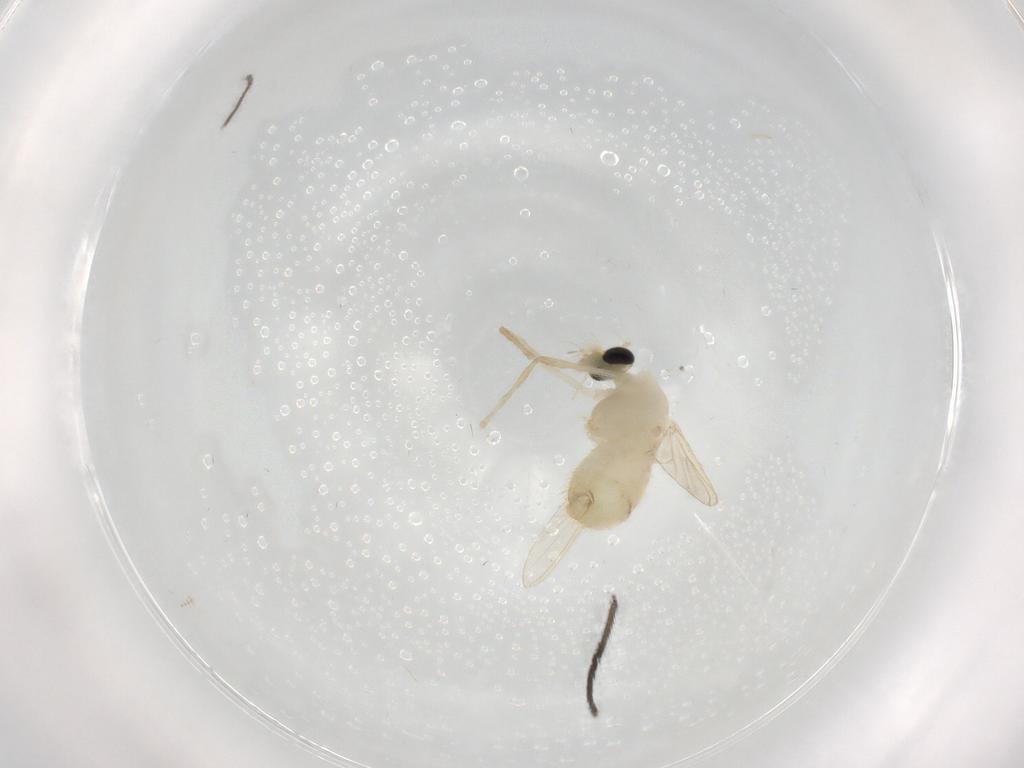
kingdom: Animalia
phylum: Arthropoda
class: Insecta
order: Diptera
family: Chironomidae
